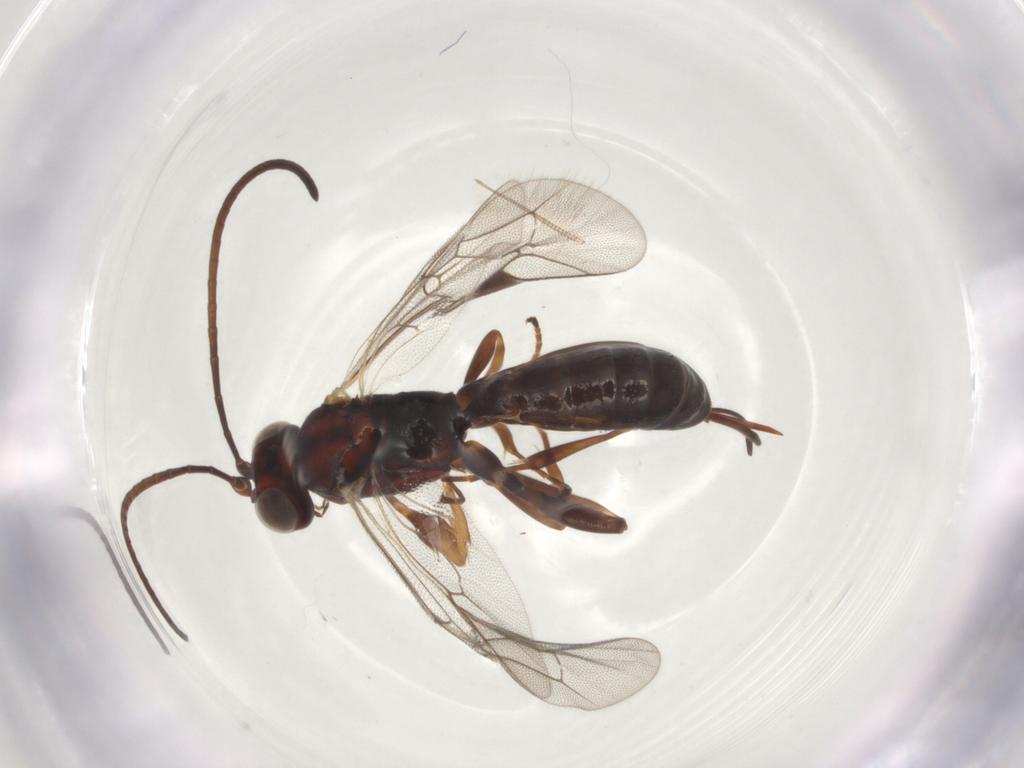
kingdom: Animalia
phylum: Arthropoda
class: Insecta
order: Hymenoptera
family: Ichneumonidae
